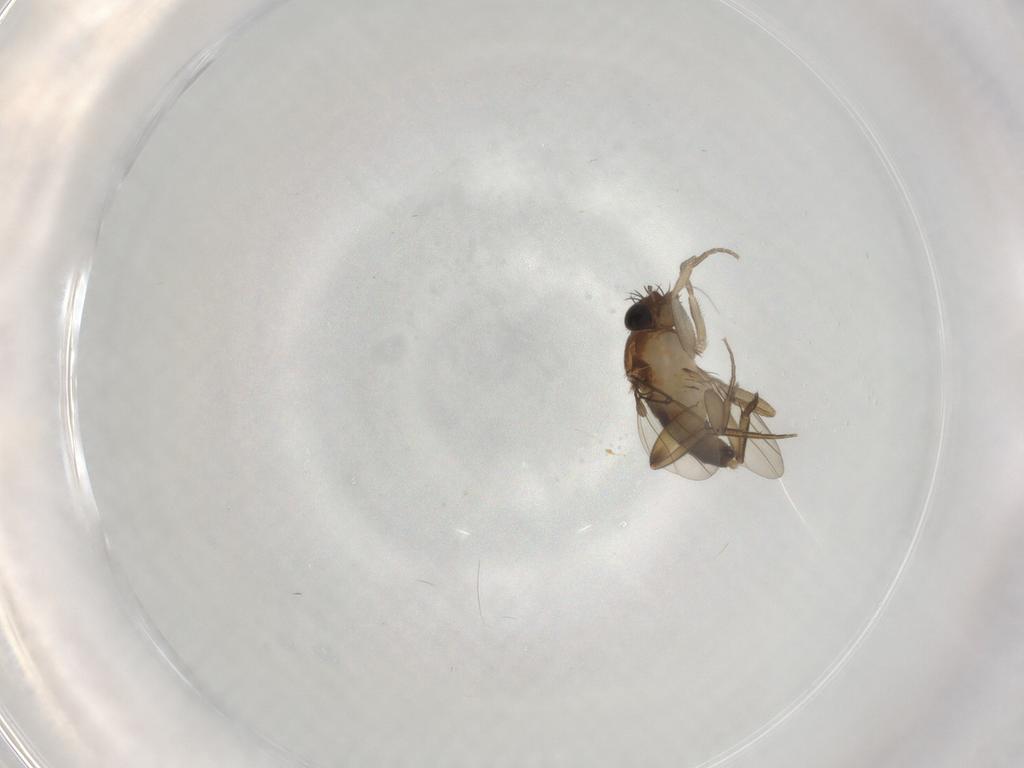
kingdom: Animalia
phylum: Arthropoda
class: Insecta
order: Diptera
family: Phoridae
